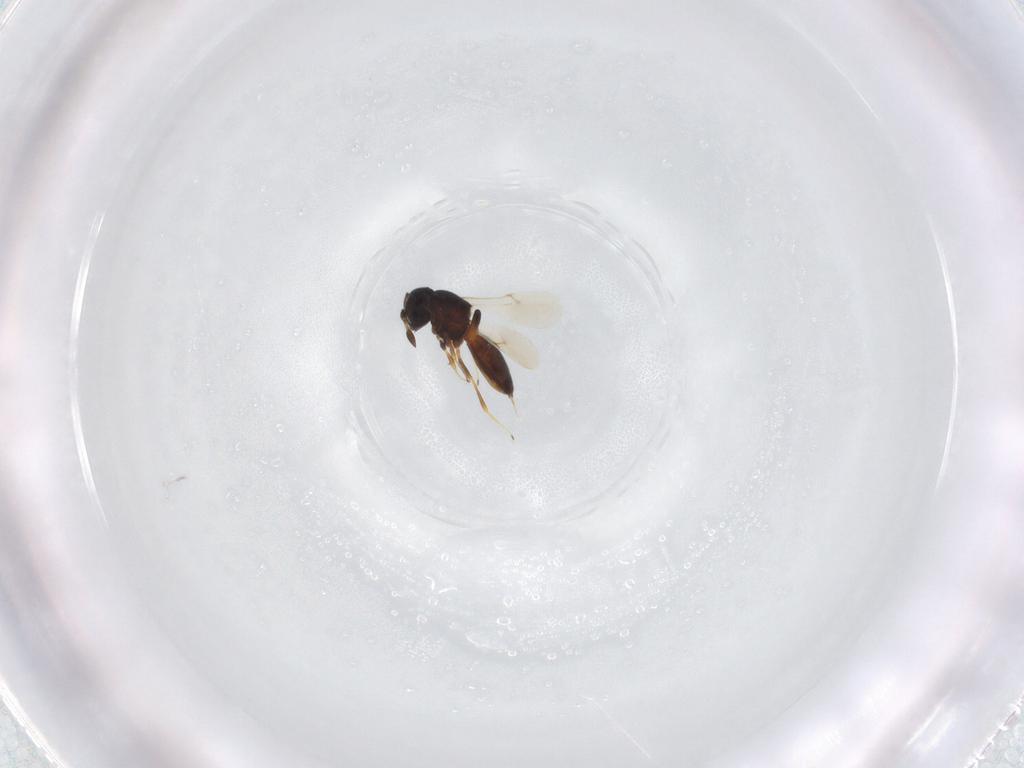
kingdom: Animalia
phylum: Arthropoda
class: Insecta
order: Hymenoptera
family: Scelionidae
